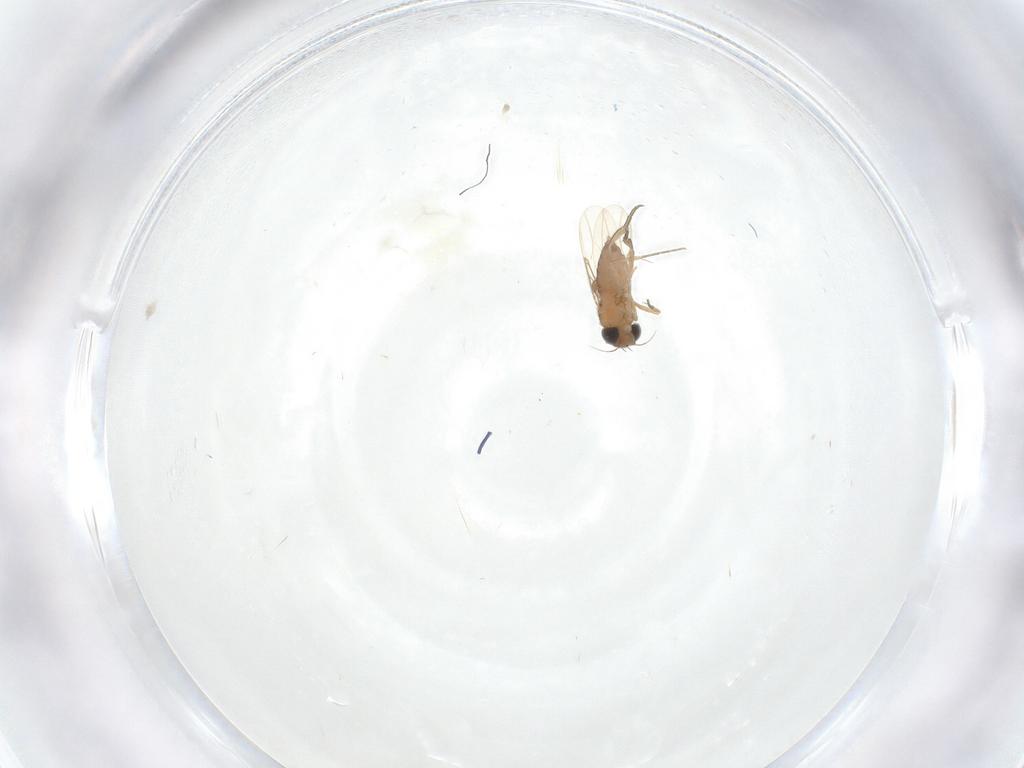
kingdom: Animalia
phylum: Arthropoda
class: Insecta
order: Diptera
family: Phoridae
